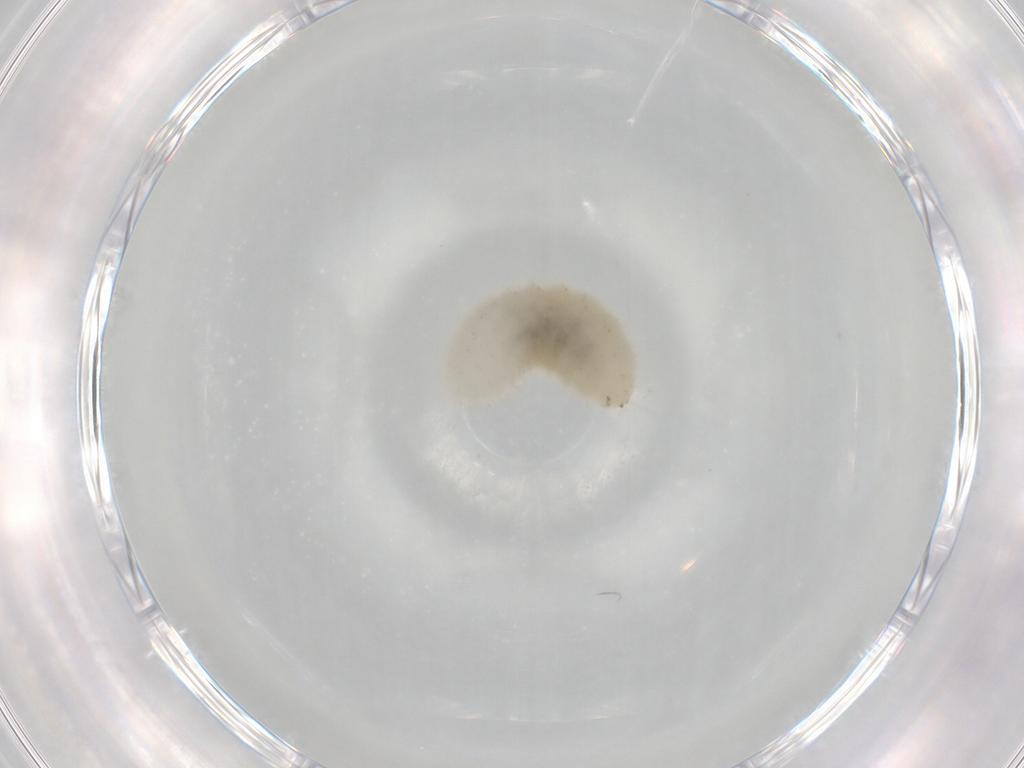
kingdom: Animalia
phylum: Arthropoda
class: Insecta
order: Hymenoptera
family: Torymidae
